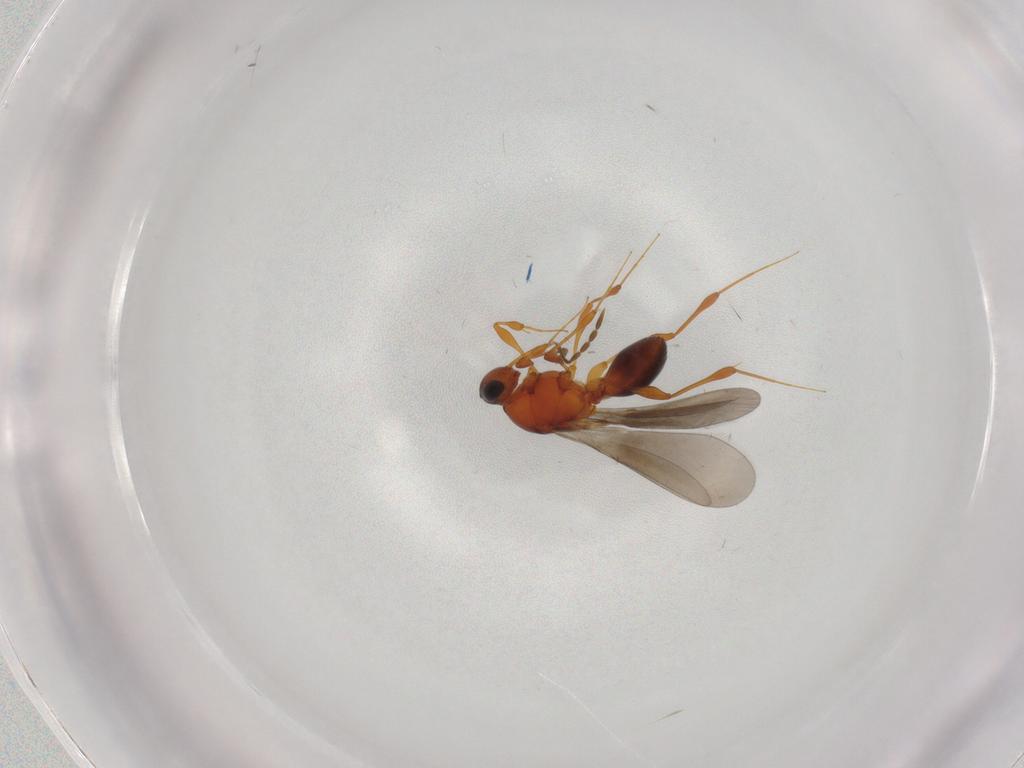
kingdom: Animalia
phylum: Arthropoda
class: Insecta
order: Hymenoptera
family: Platygastridae
